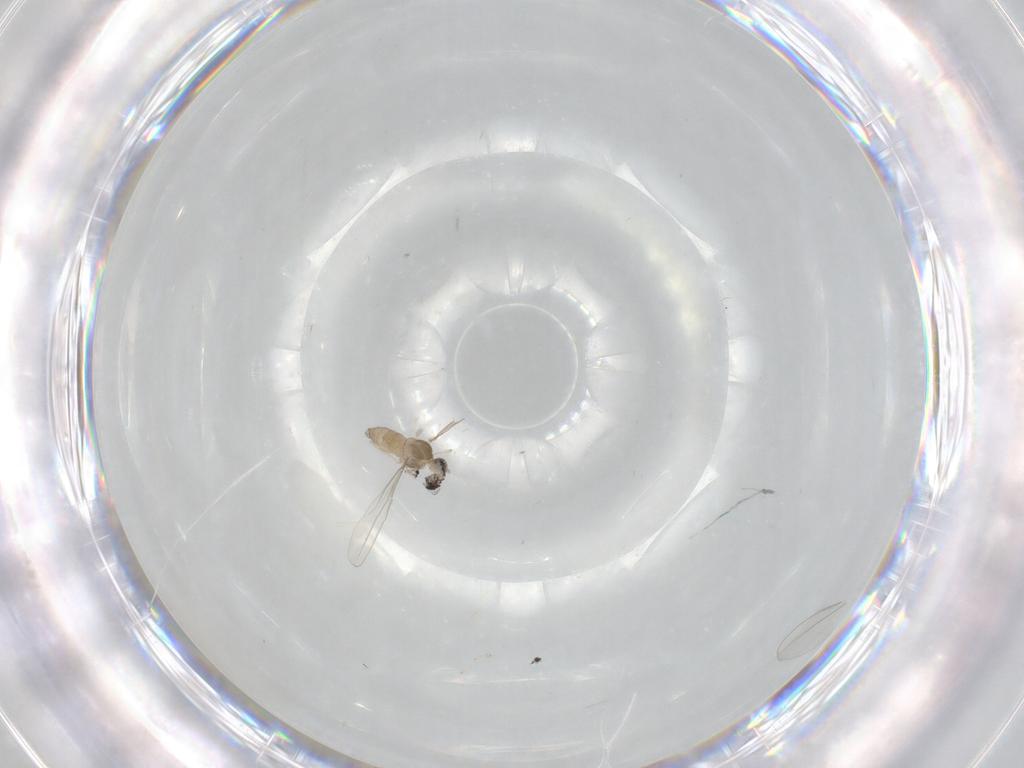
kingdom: Animalia
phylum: Arthropoda
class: Insecta
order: Diptera
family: Cecidomyiidae
